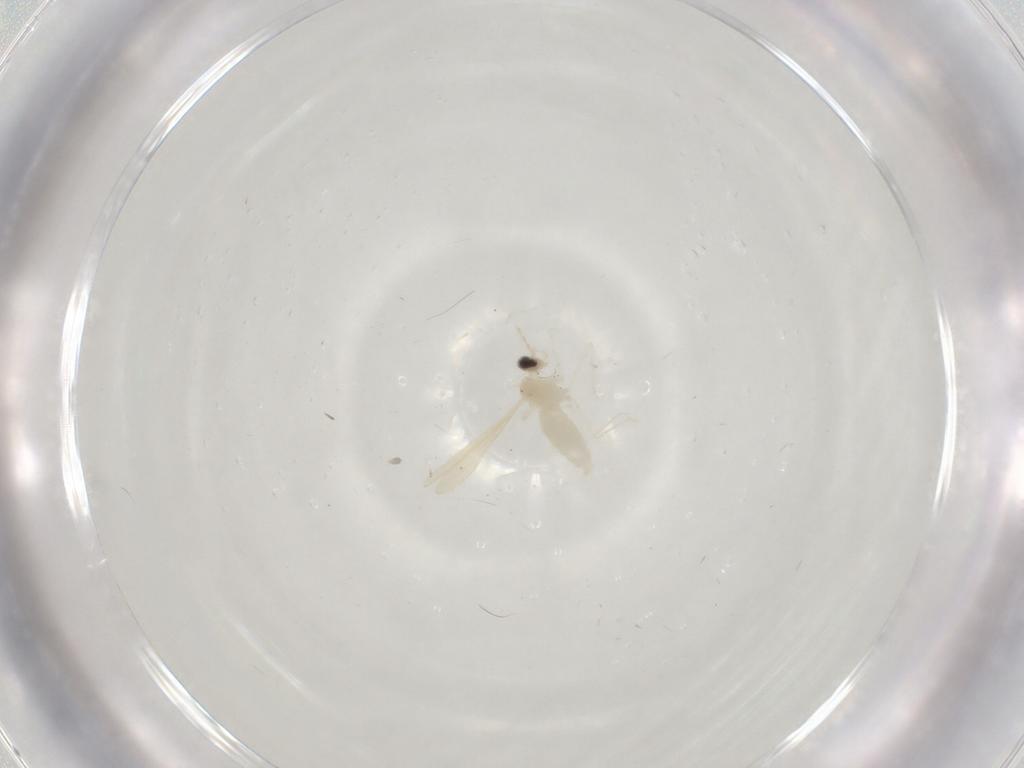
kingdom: Animalia
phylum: Arthropoda
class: Insecta
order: Diptera
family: Cecidomyiidae
